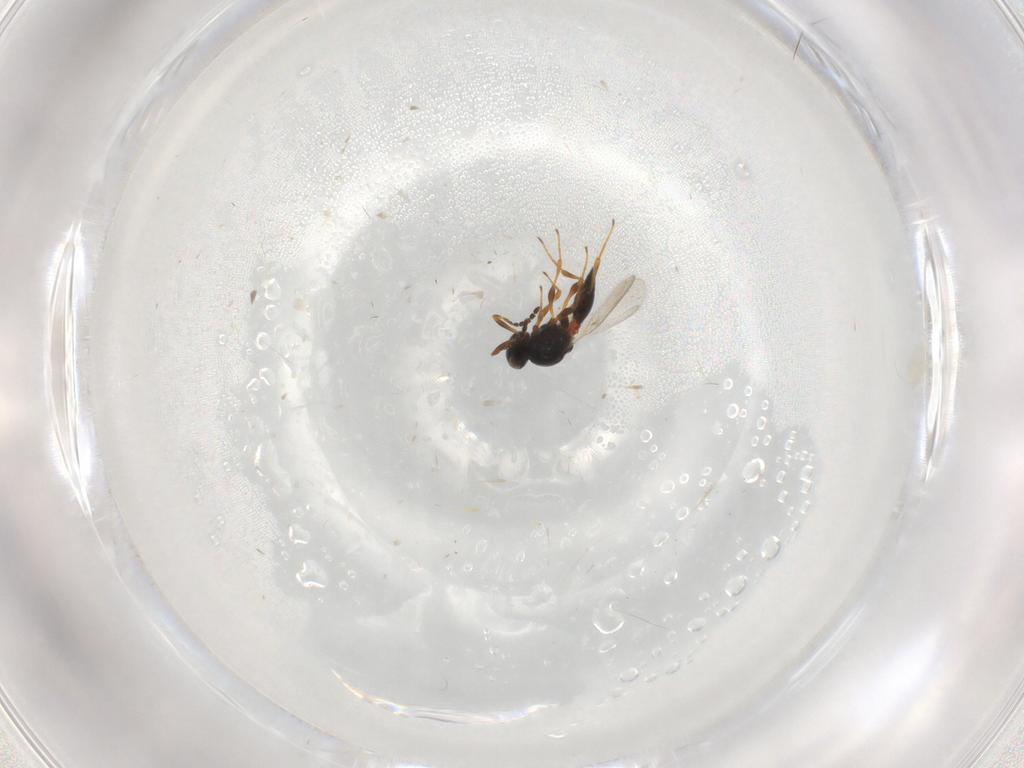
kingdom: Animalia
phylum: Arthropoda
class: Insecta
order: Hymenoptera
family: Platygastridae
